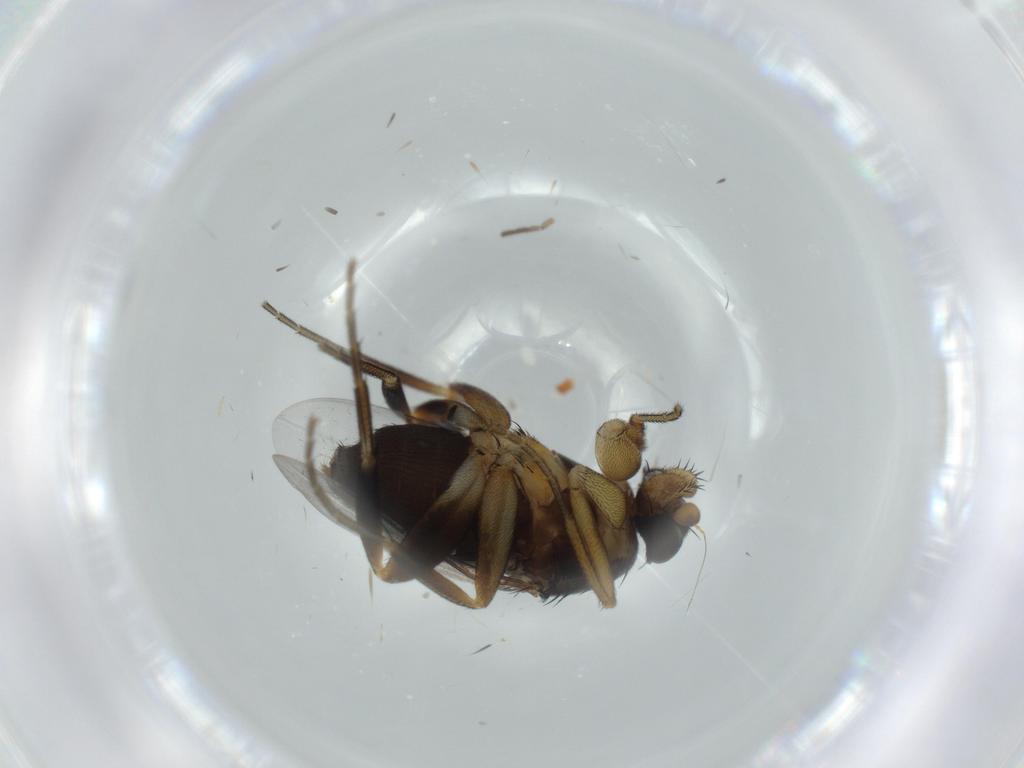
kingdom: Animalia
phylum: Arthropoda
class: Insecta
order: Diptera
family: Phoridae
